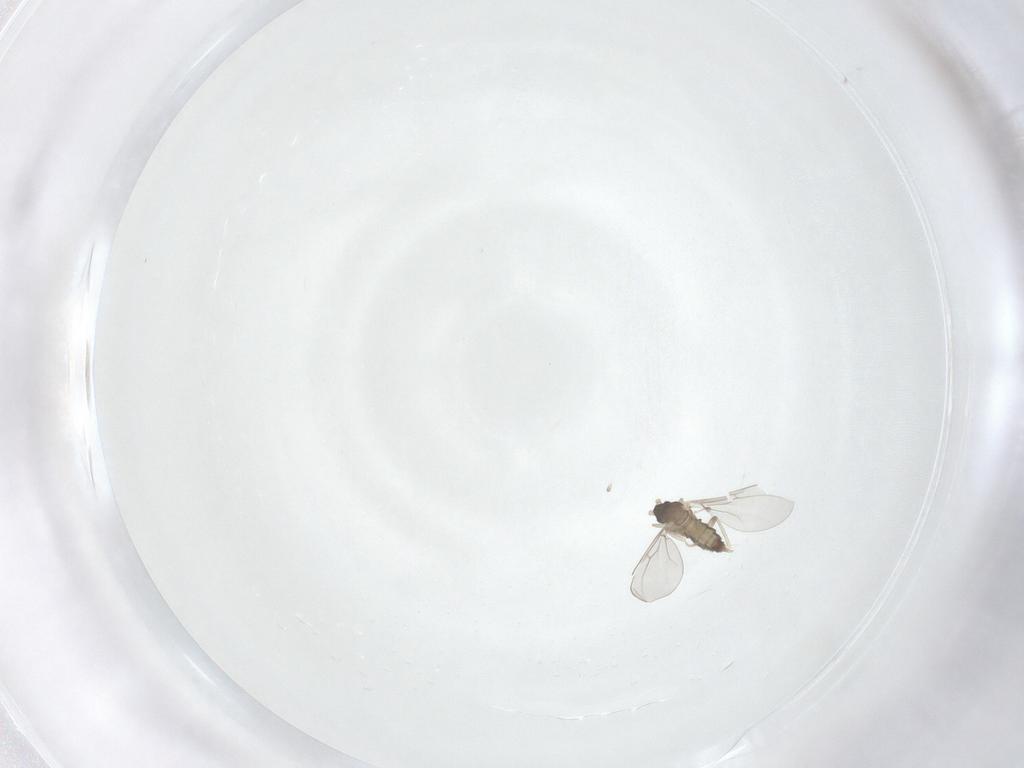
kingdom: Animalia
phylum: Arthropoda
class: Insecta
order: Diptera
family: Cecidomyiidae
